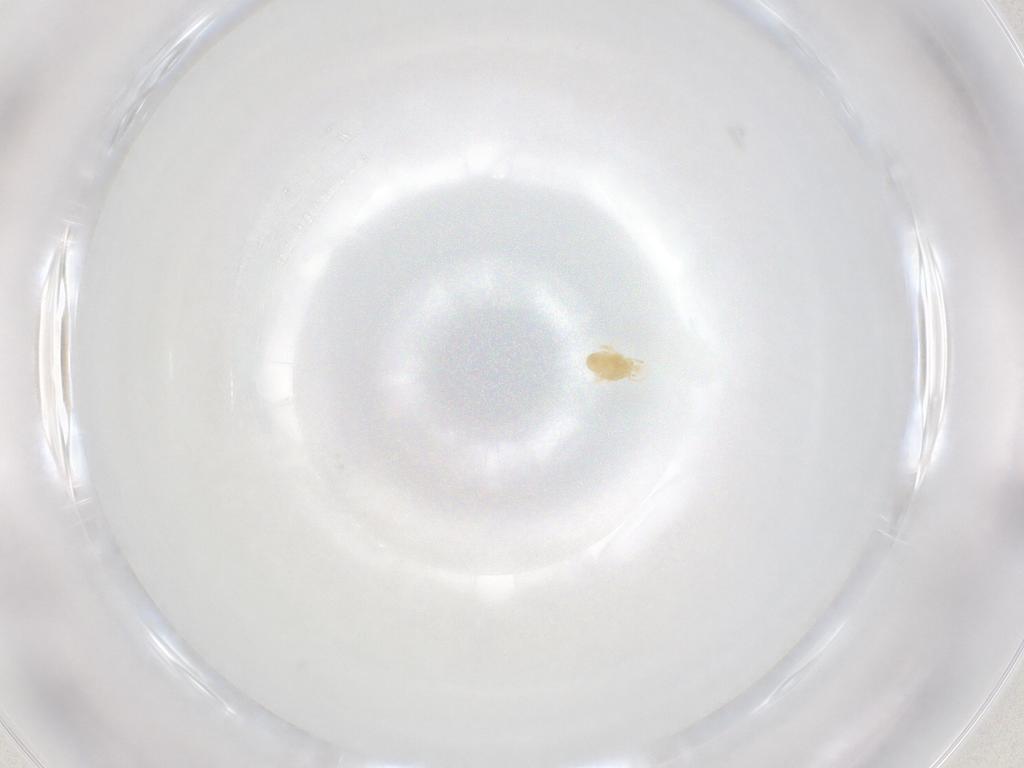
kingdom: Animalia
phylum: Arthropoda
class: Arachnida
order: Trombidiformes
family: Eupodidae
